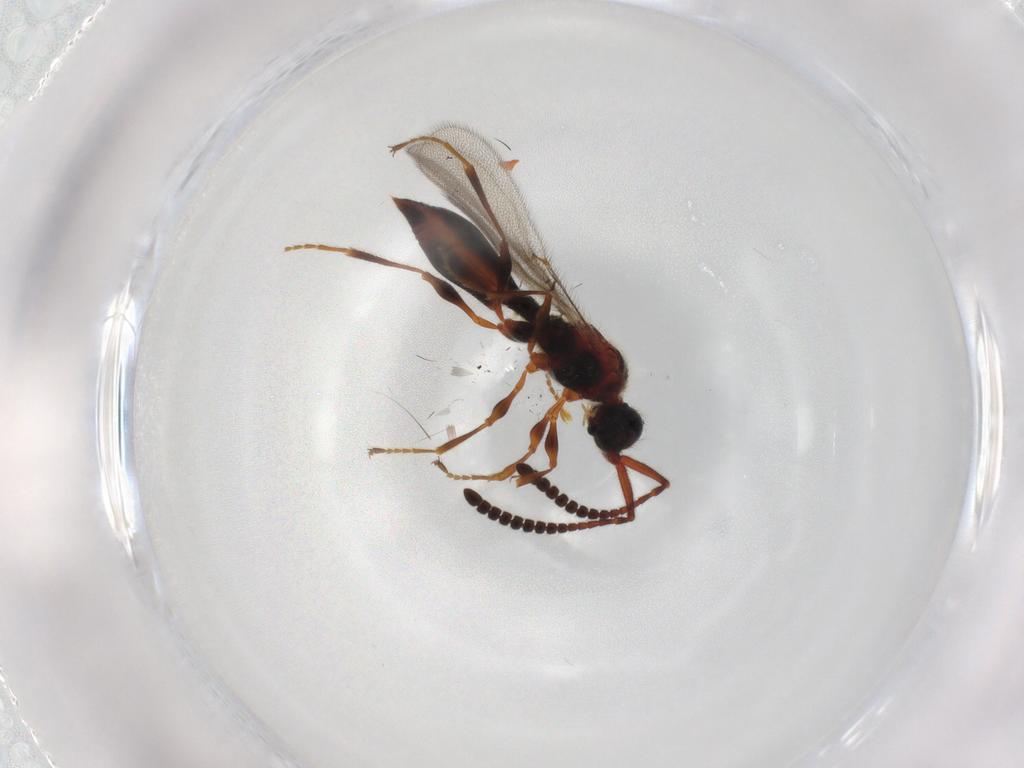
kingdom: Animalia
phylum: Arthropoda
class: Insecta
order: Hymenoptera
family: Diapriidae
